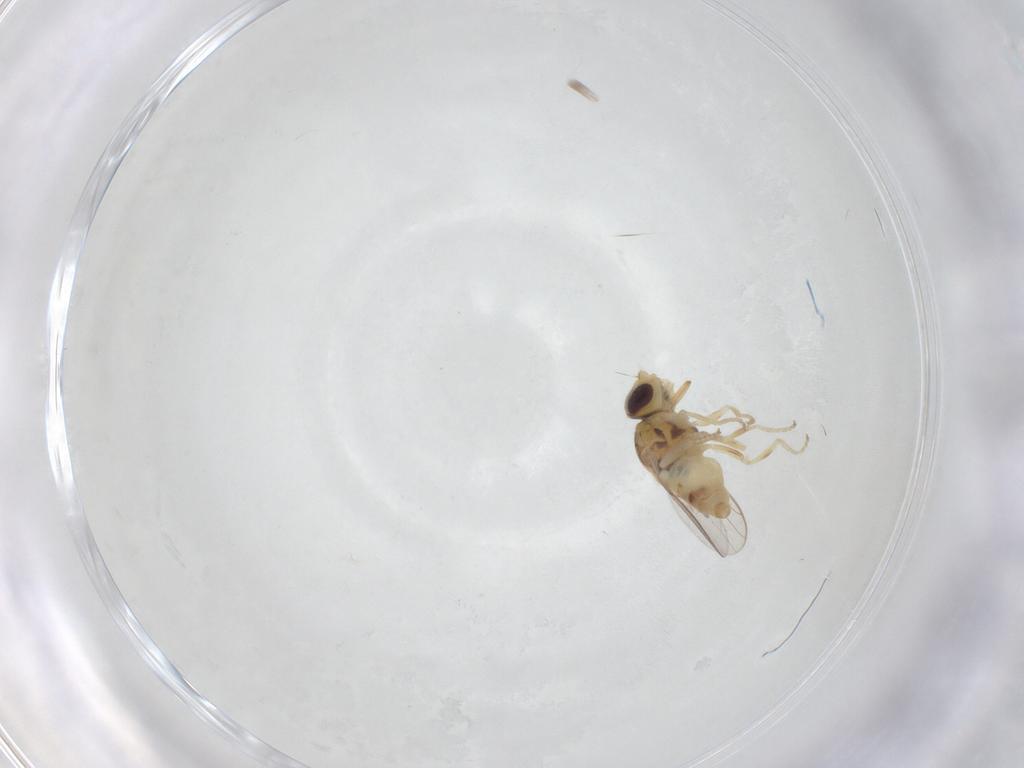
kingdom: Animalia
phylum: Arthropoda
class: Insecta
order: Diptera
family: Chloropidae
